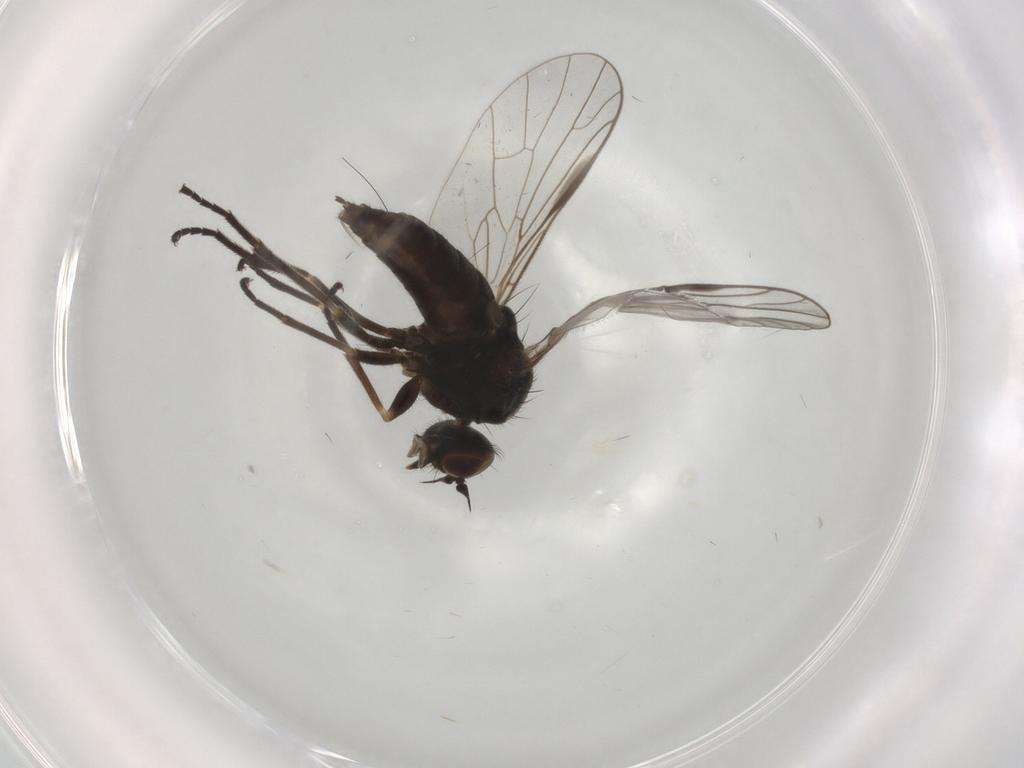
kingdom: Animalia
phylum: Arthropoda
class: Insecta
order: Diptera
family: Empididae
